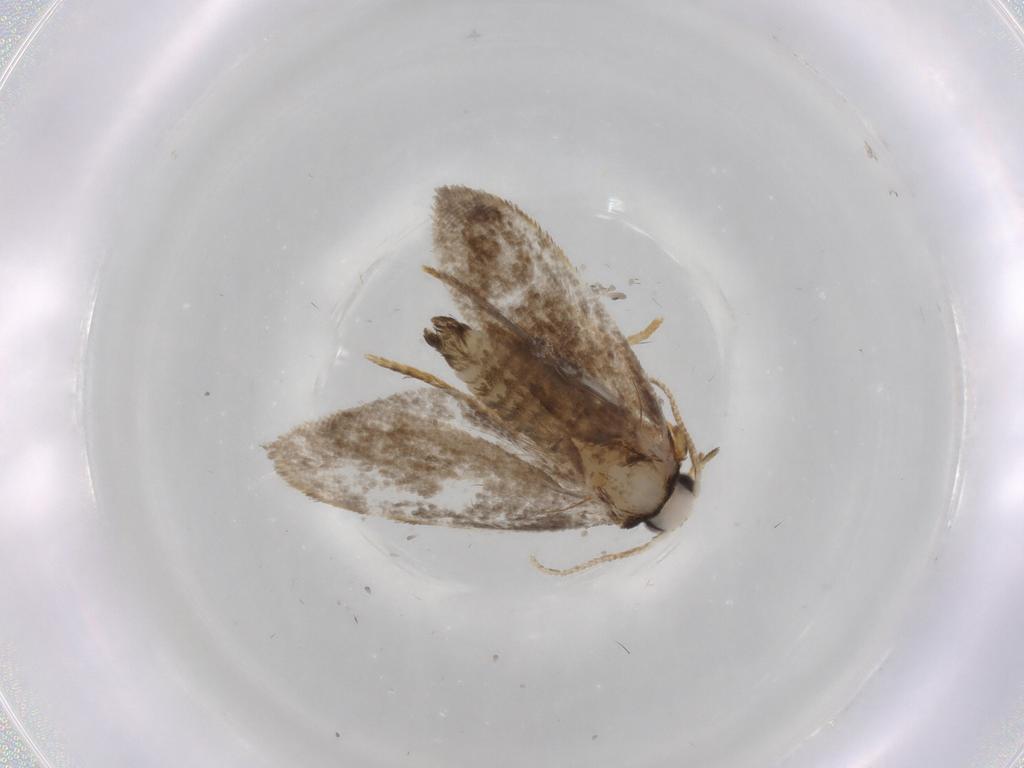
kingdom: Animalia
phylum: Arthropoda
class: Insecta
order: Lepidoptera
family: Psychidae
